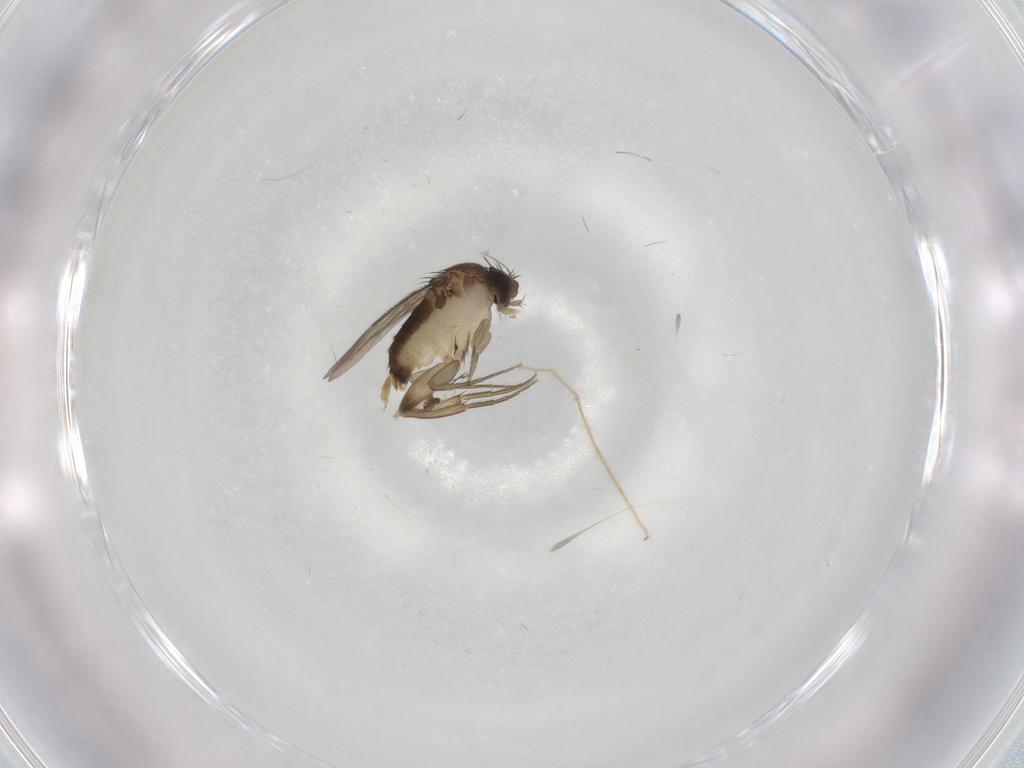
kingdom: Animalia
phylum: Arthropoda
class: Insecta
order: Diptera
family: Phoridae
